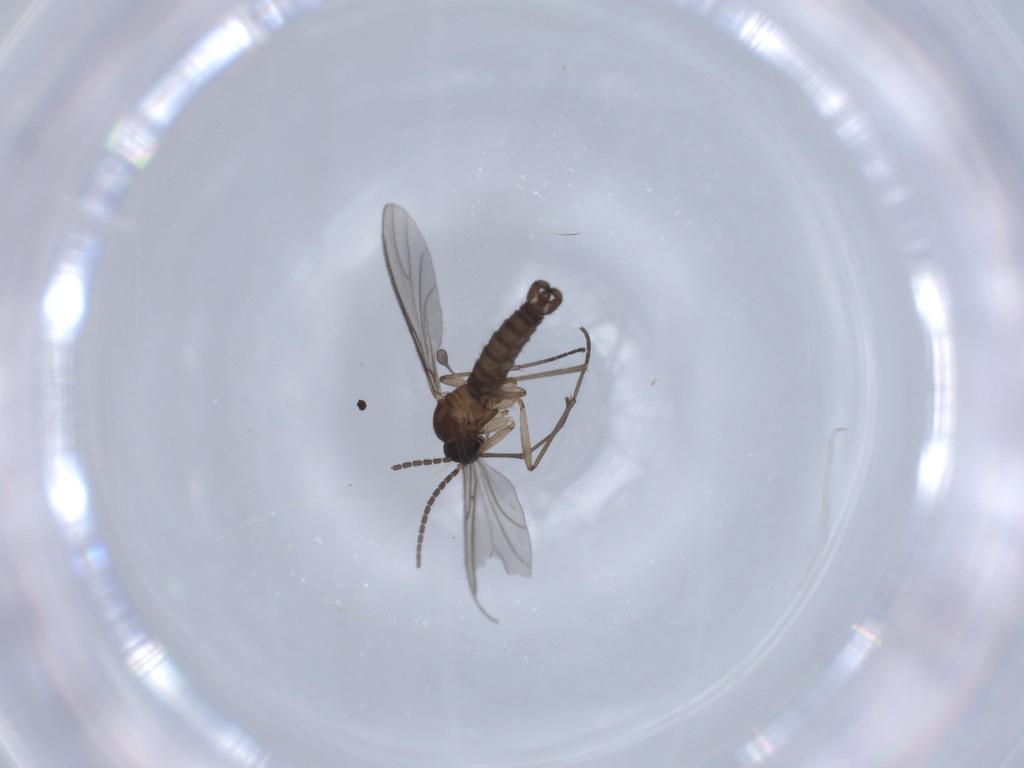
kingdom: Animalia
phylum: Arthropoda
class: Insecta
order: Diptera
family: Sciaridae
